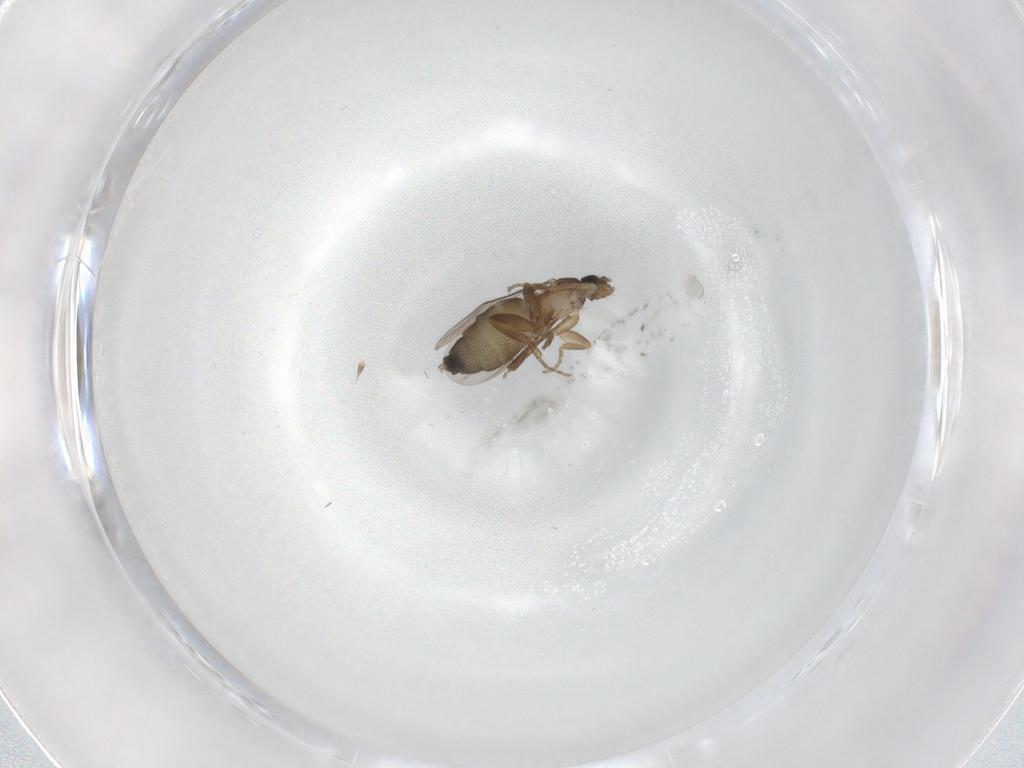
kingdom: Animalia
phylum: Arthropoda
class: Insecta
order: Diptera
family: Phoridae
